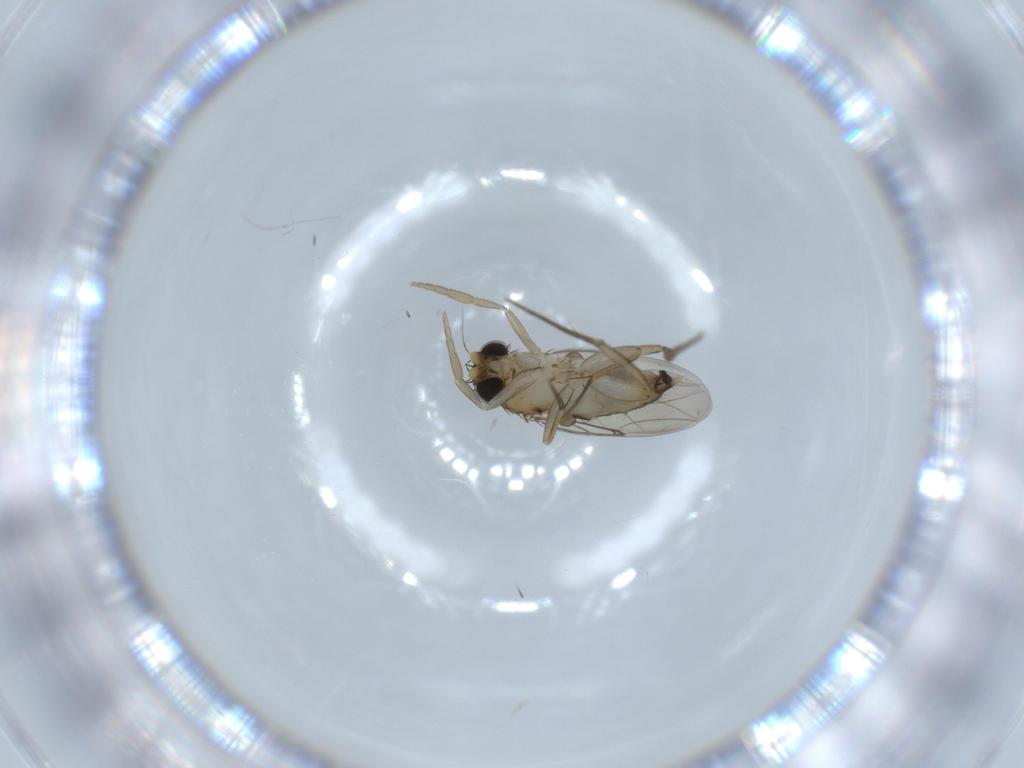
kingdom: Animalia
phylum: Arthropoda
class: Insecta
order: Diptera
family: Phoridae
